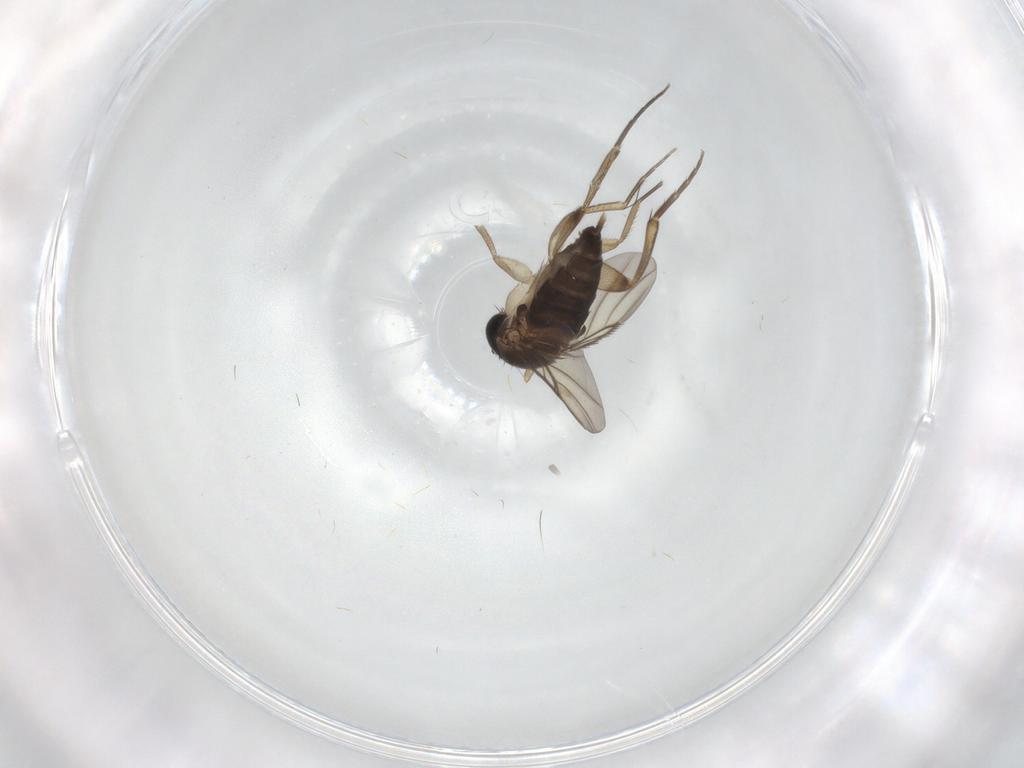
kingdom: Animalia
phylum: Arthropoda
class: Insecta
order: Diptera
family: Phoridae
